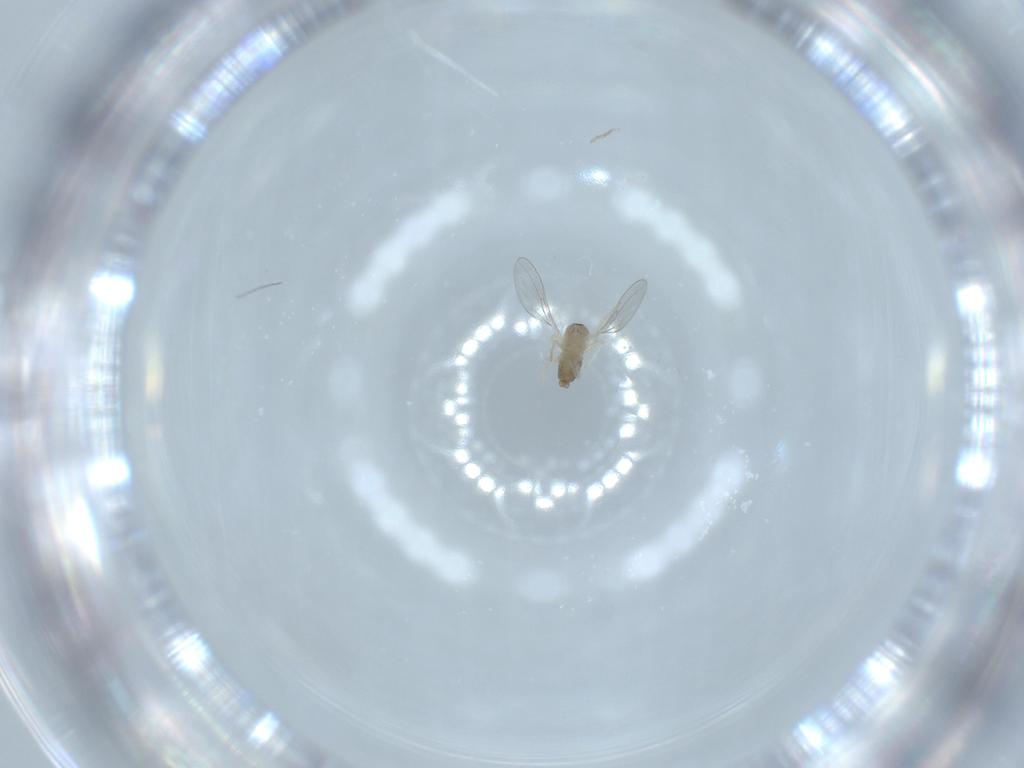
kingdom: Animalia
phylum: Arthropoda
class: Insecta
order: Diptera
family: Cecidomyiidae
